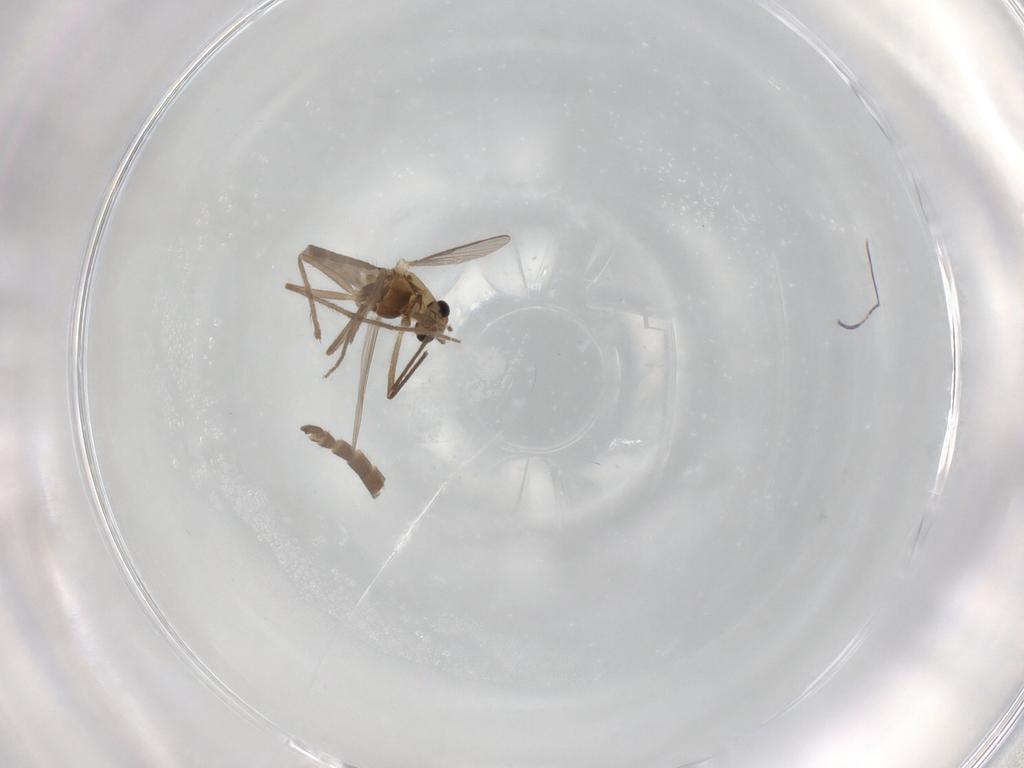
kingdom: Animalia
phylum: Arthropoda
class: Insecta
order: Diptera
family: Chironomidae
